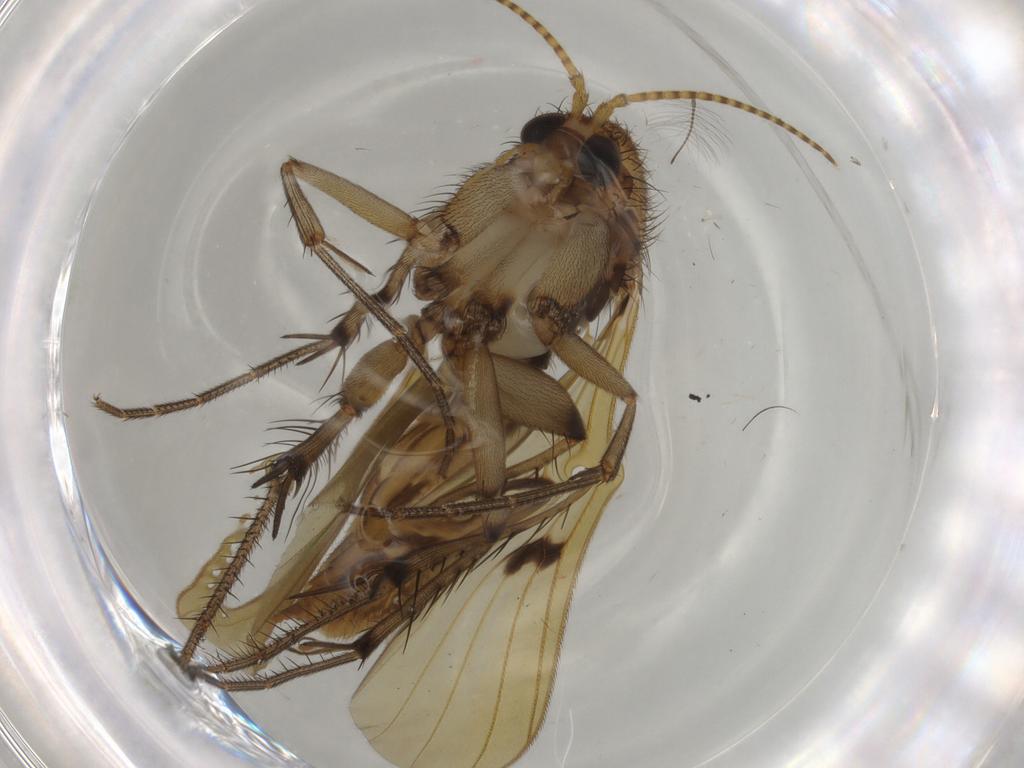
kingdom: Animalia
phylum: Arthropoda
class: Insecta
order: Diptera
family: Mycetophilidae
